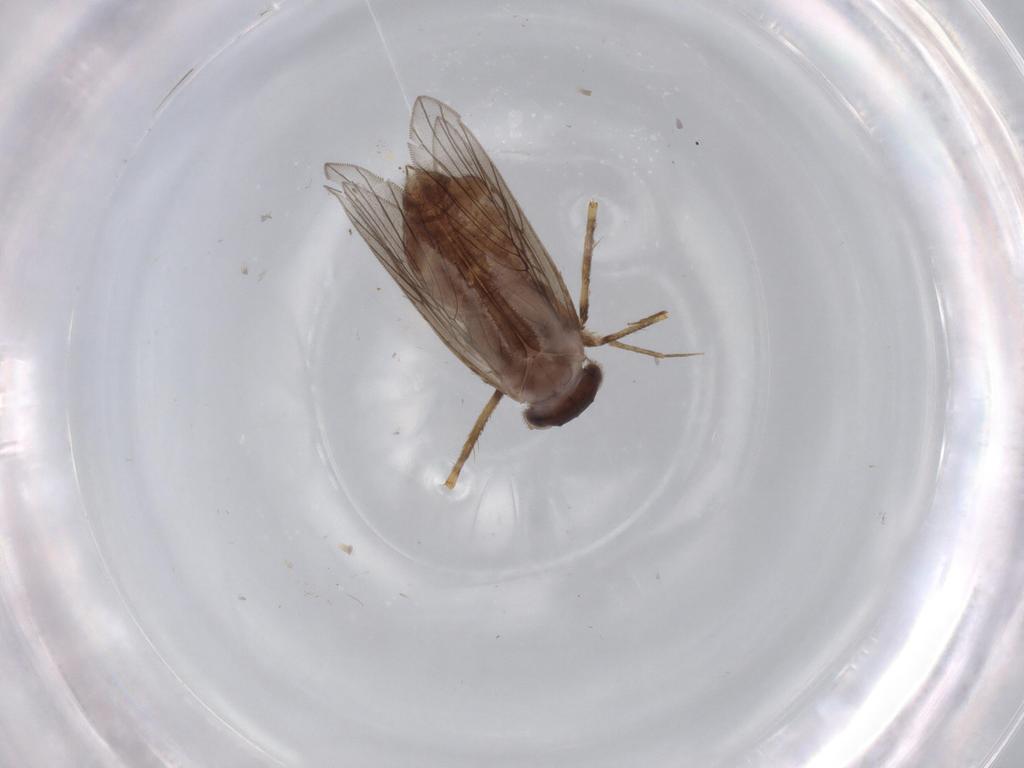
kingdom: Animalia
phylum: Arthropoda
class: Insecta
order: Psocodea
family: Lepidopsocidae
